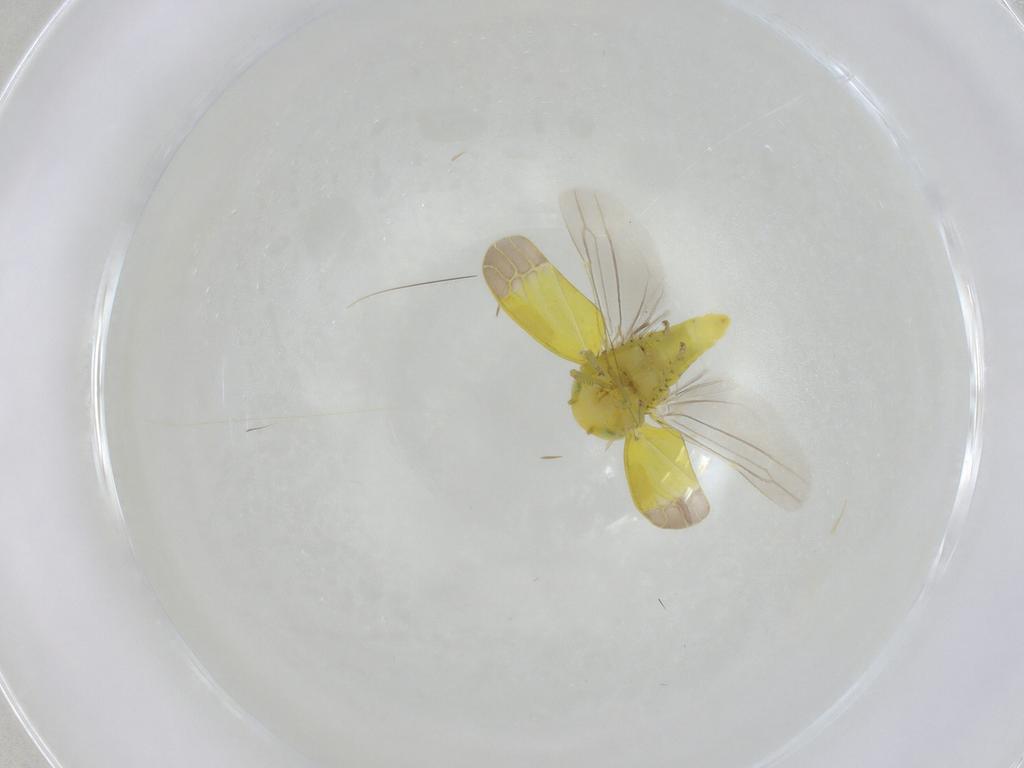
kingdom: Animalia
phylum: Arthropoda
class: Insecta
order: Hemiptera
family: Cicadellidae
